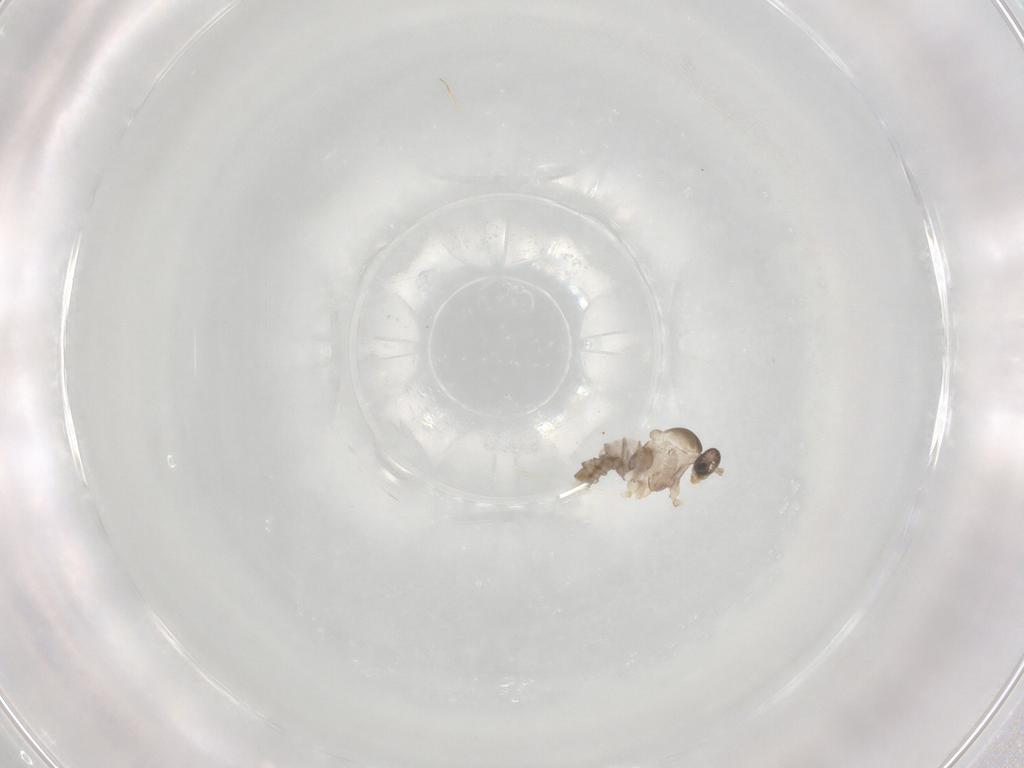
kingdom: Animalia
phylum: Arthropoda
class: Insecta
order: Diptera
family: Cecidomyiidae
